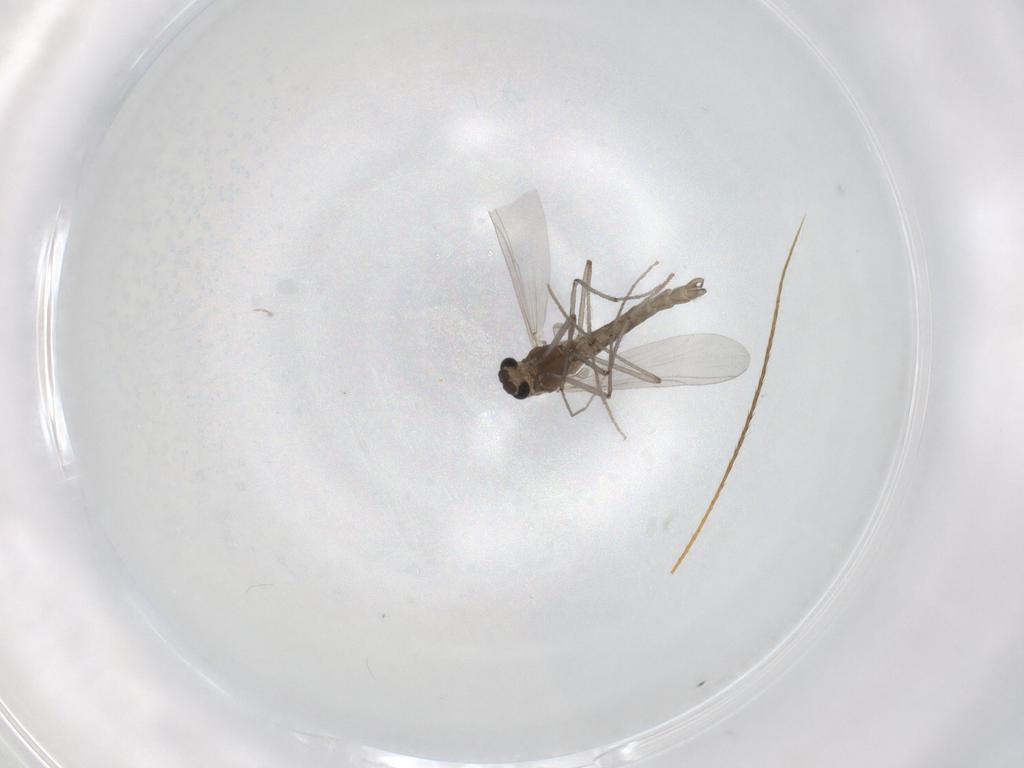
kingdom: Animalia
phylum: Arthropoda
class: Insecta
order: Diptera
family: Chironomidae
